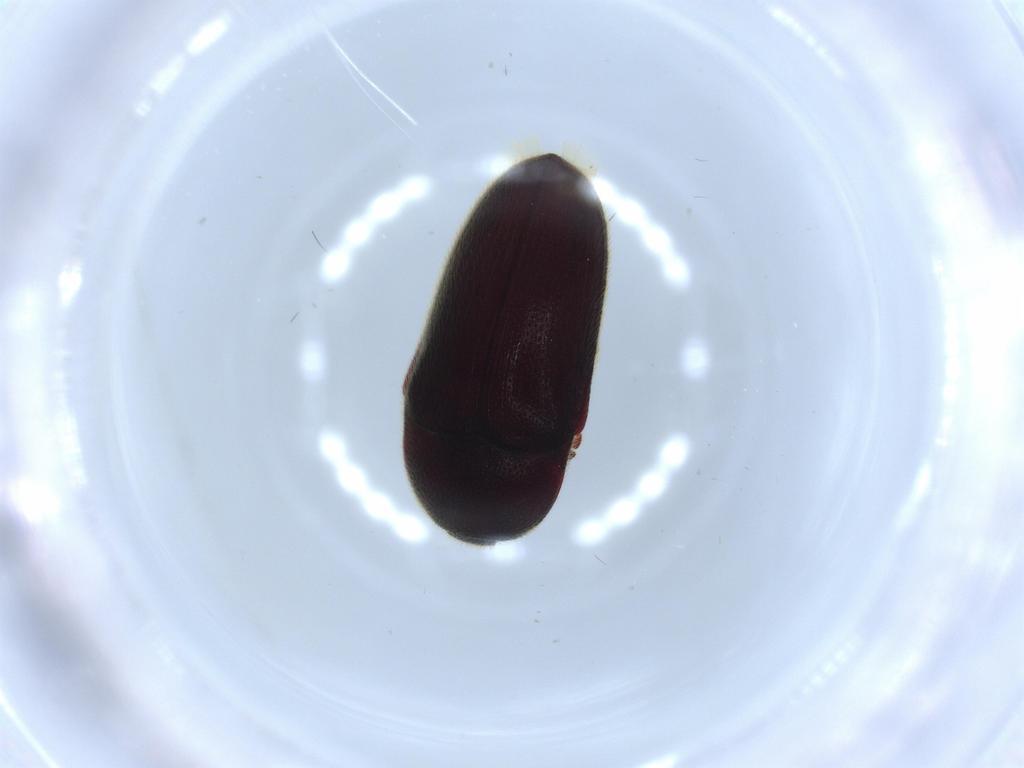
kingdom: Animalia
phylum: Arthropoda
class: Insecta
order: Coleoptera
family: Throscidae
